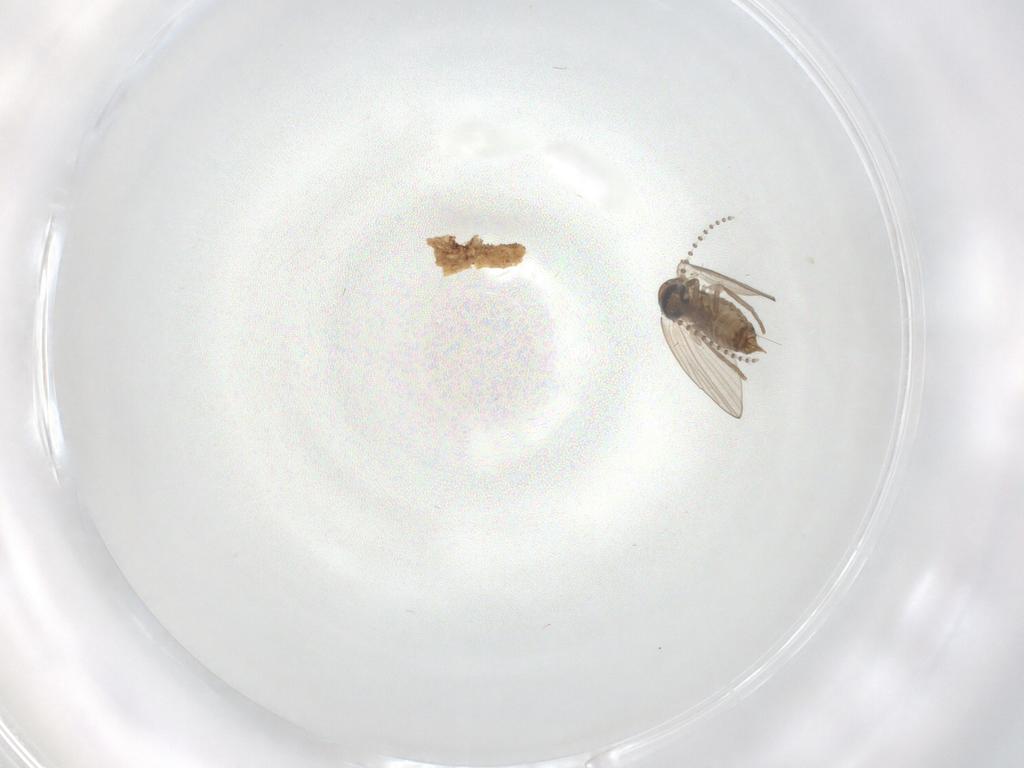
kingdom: Animalia
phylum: Arthropoda
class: Insecta
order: Diptera
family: Psychodidae
